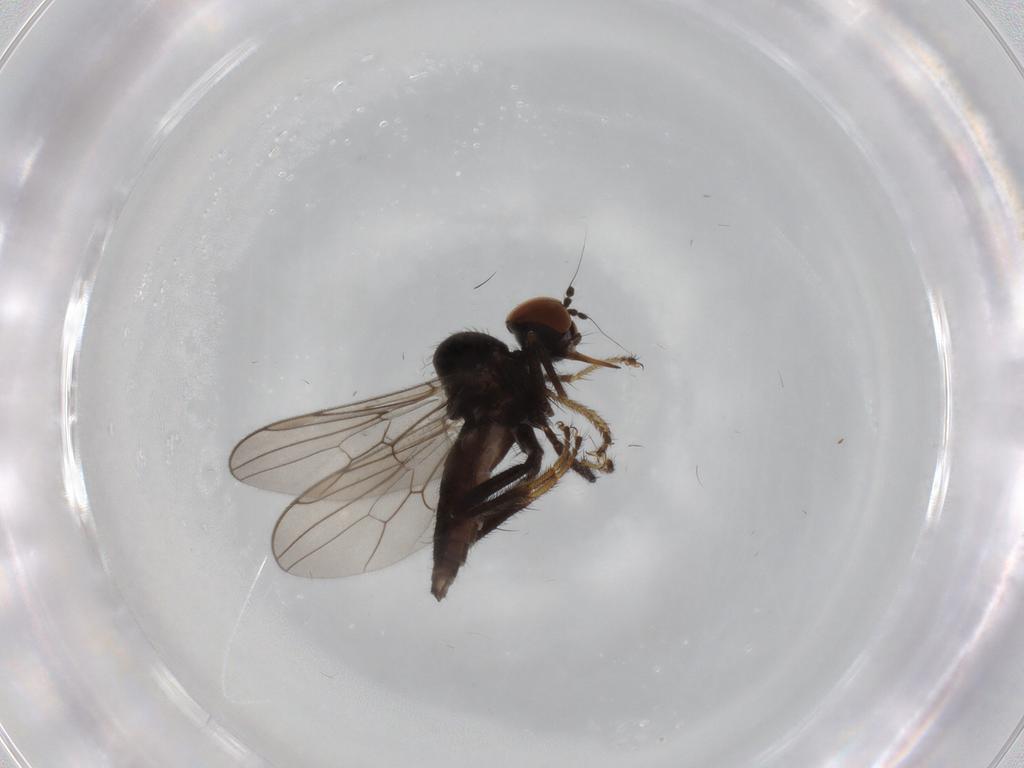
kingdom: Animalia
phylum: Arthropoda
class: Insecta
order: Diptera
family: Hybotidae
